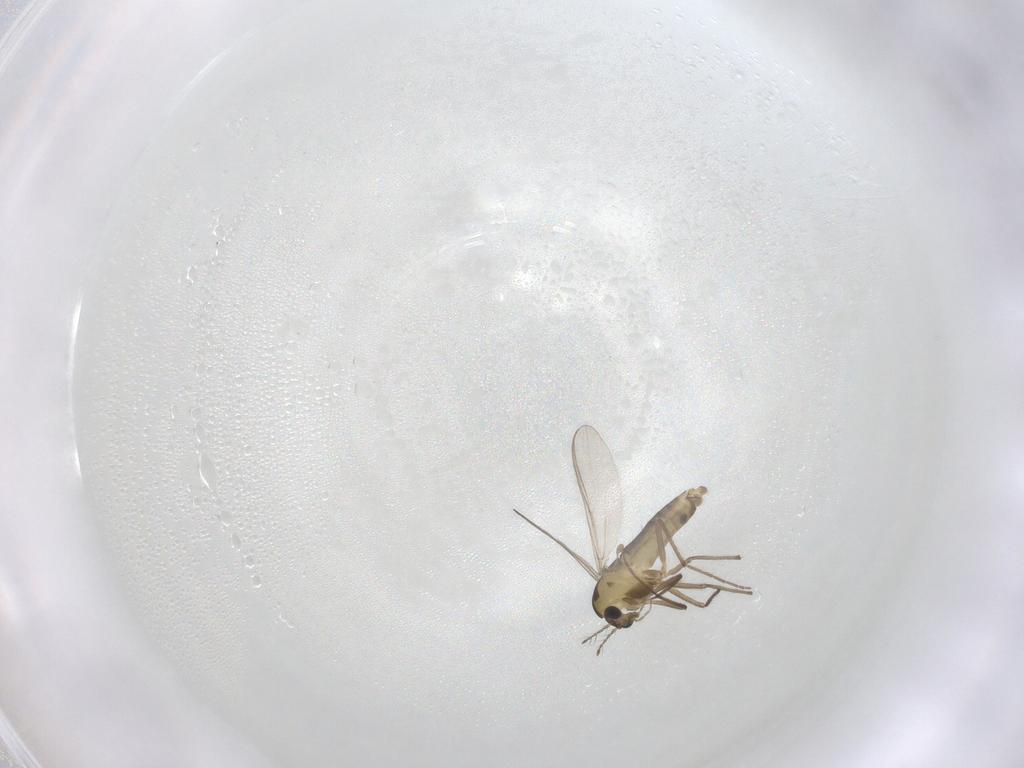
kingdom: Animalia
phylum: Arthropoda
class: Insecta
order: Diptera
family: Chironomidae
